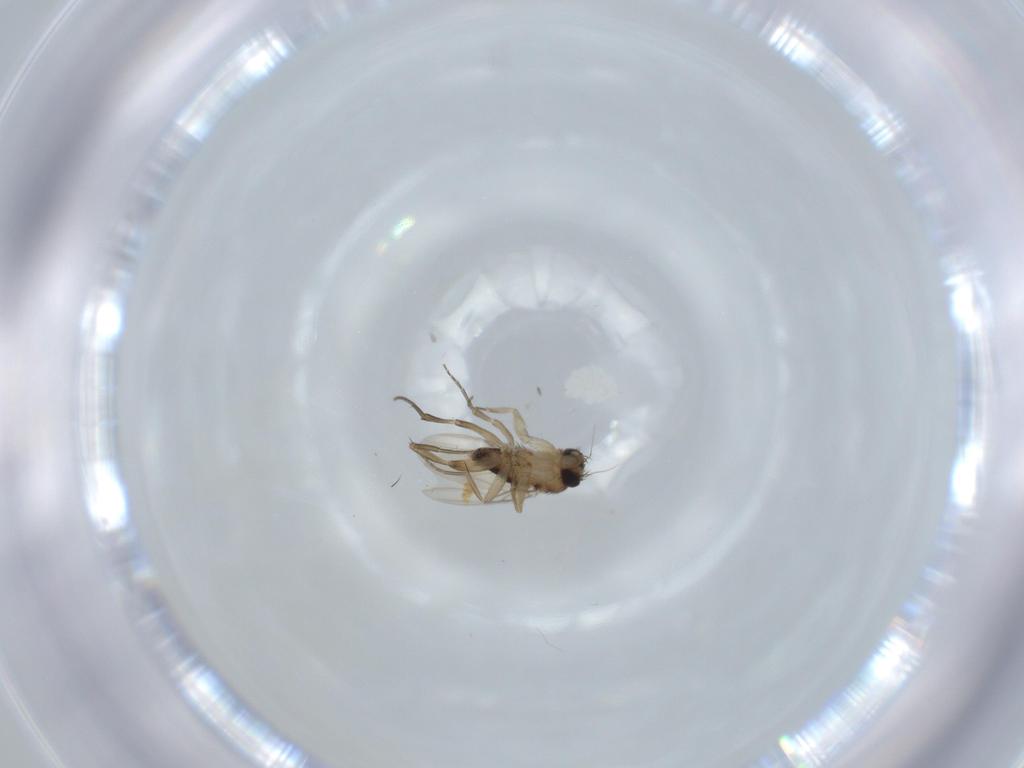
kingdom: Animalia
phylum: Arthropoda
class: Insecta
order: Diptera
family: Phoridae
